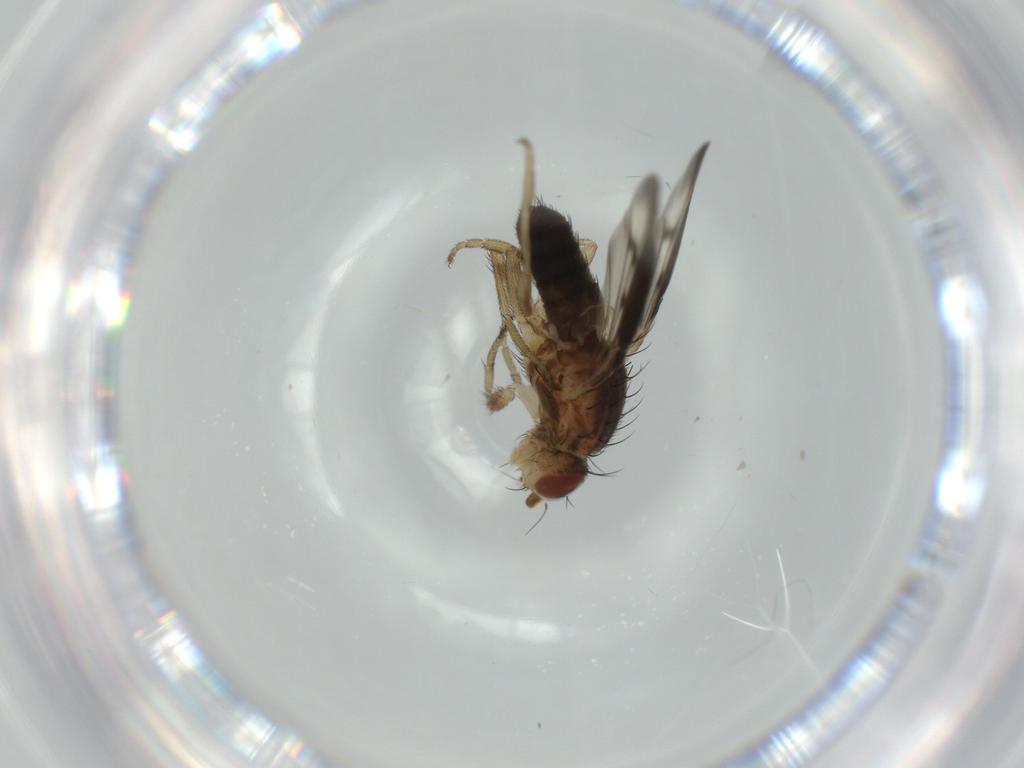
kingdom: Animalia
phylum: Arthropoda
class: Insecta
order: Diptera
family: Heleomyzidae
